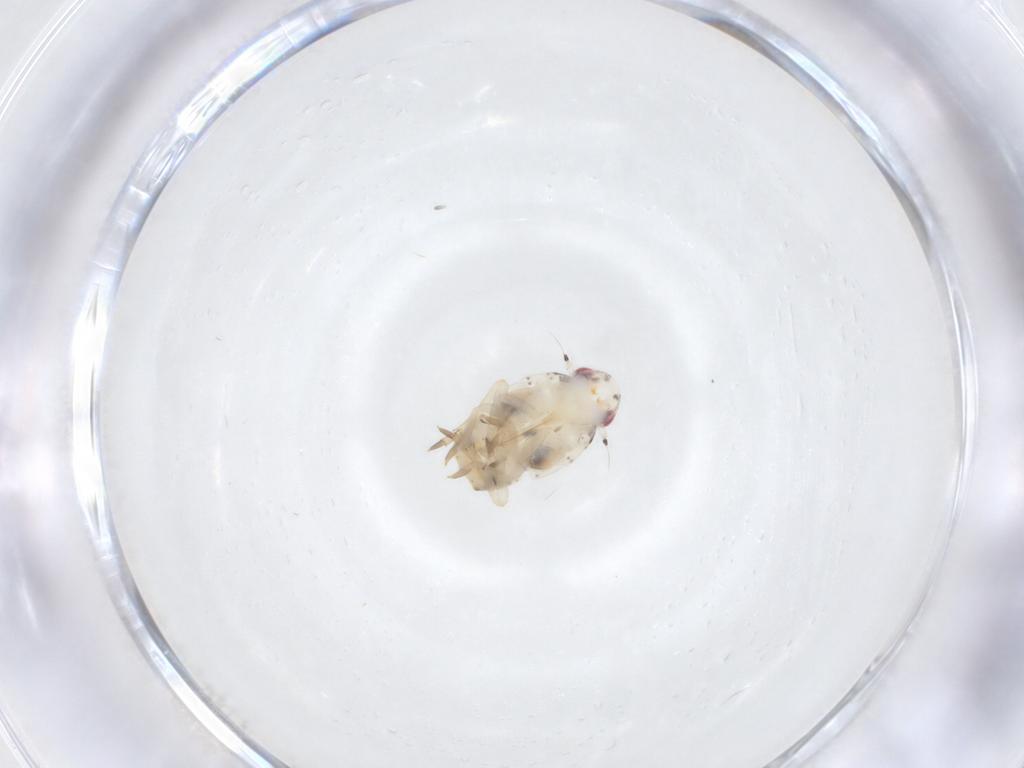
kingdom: Animalia
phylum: Arthropoda
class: Insecta
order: Hemiptera
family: Flatidae
